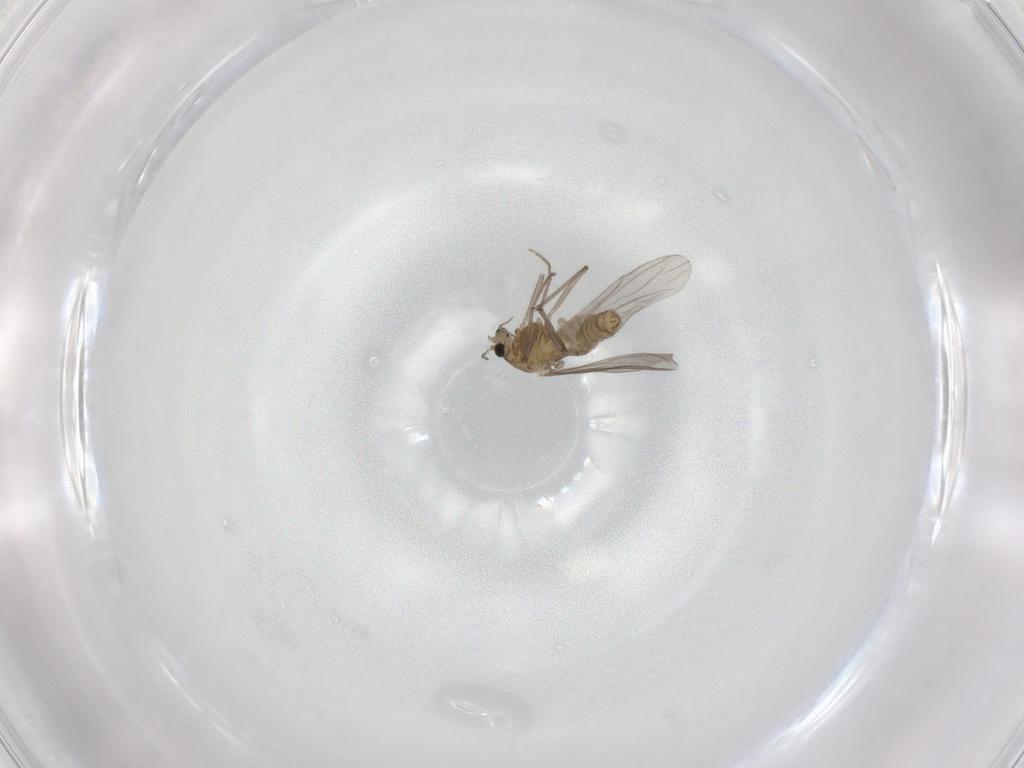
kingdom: Animalia
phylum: Arthropoda
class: Insecta
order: Diptera
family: Chironomidae
